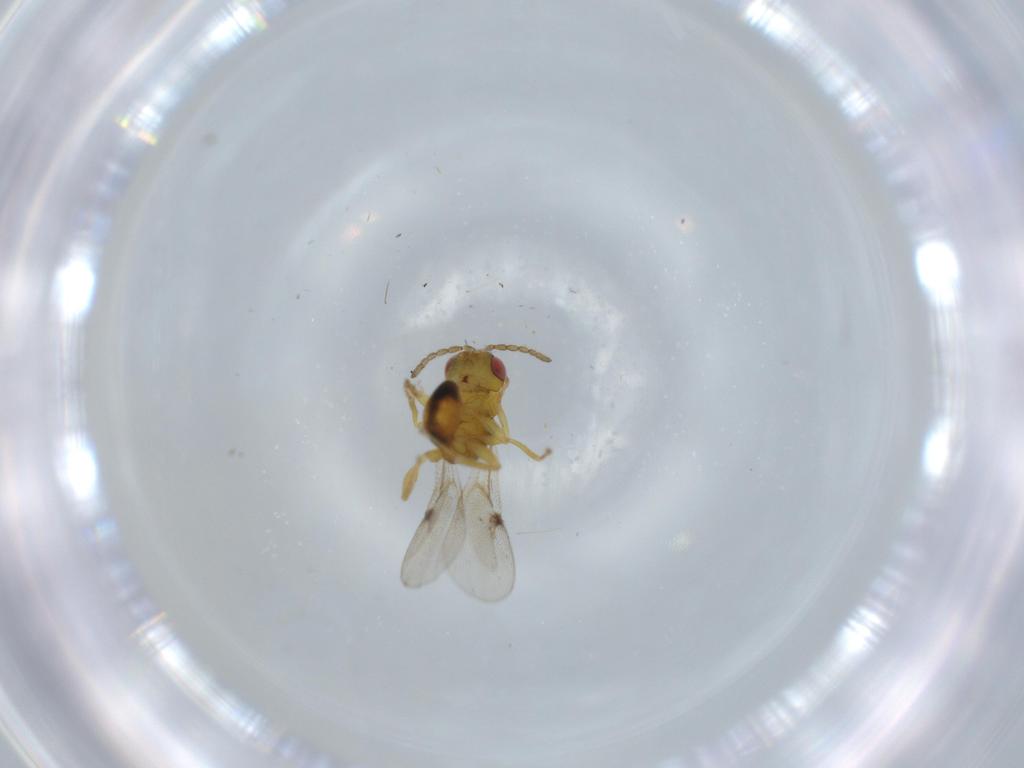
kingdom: Animalia
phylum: Arthropoda
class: Insecta
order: Hymenoptera
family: Eurytomidae
